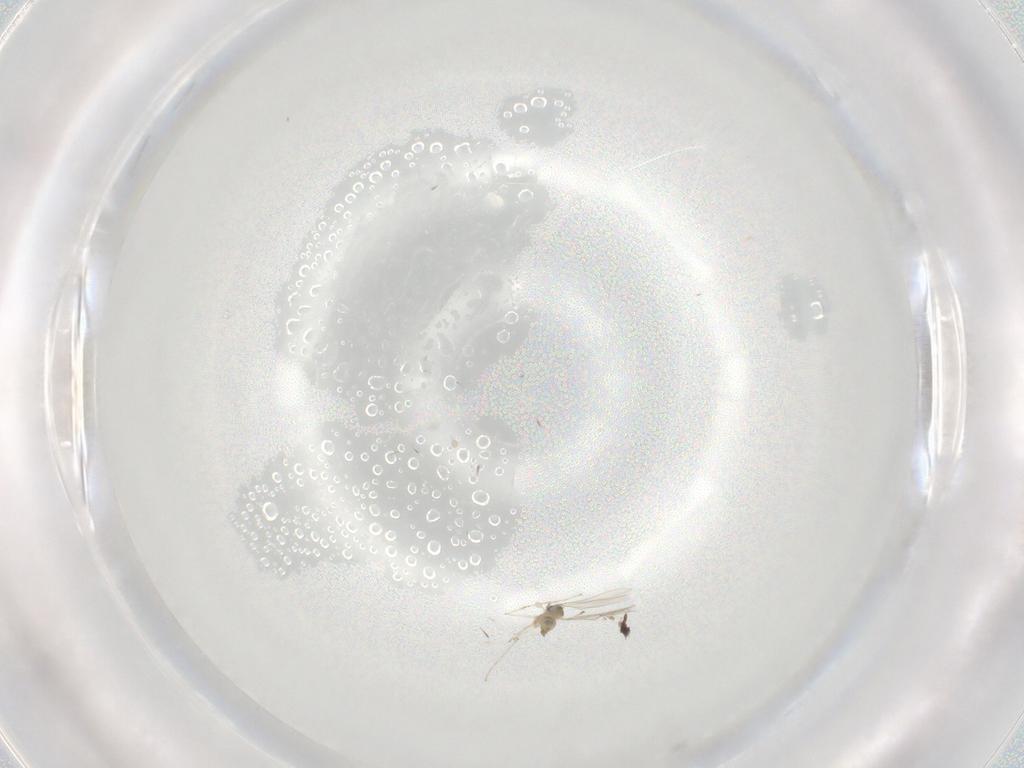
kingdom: Animalia
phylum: Arthropoda
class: Insecta
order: Diptera
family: Cecidomyiidae
